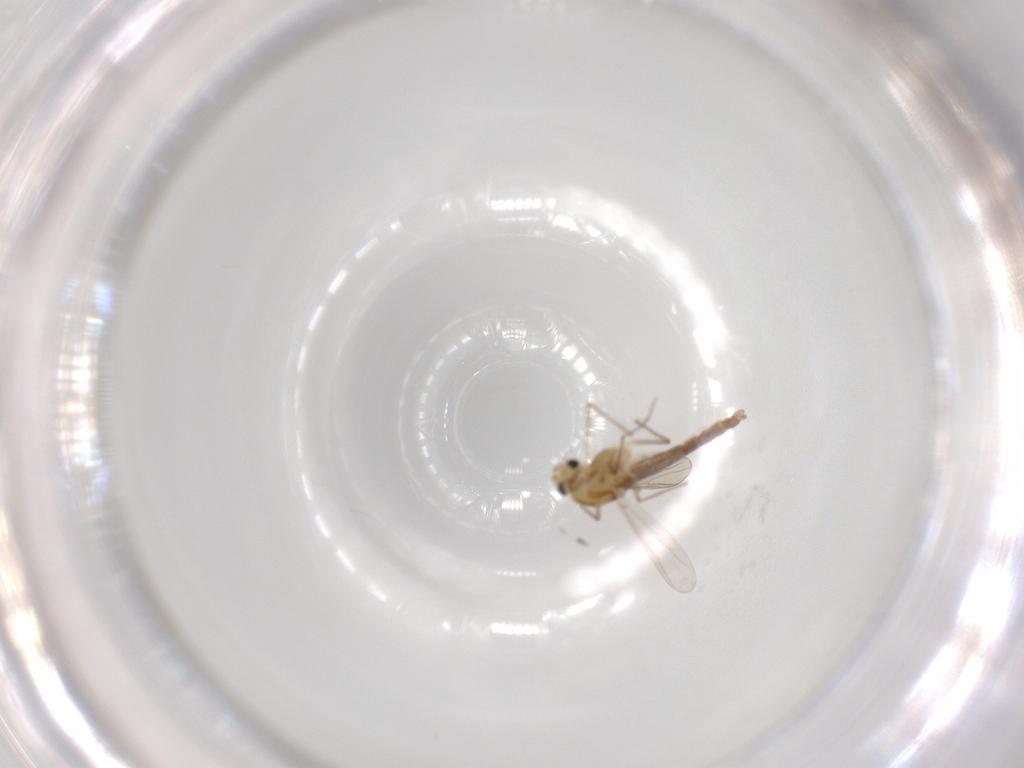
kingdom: Animalia
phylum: Arthropoda
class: Insecta
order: Diptera
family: Chironomidae
